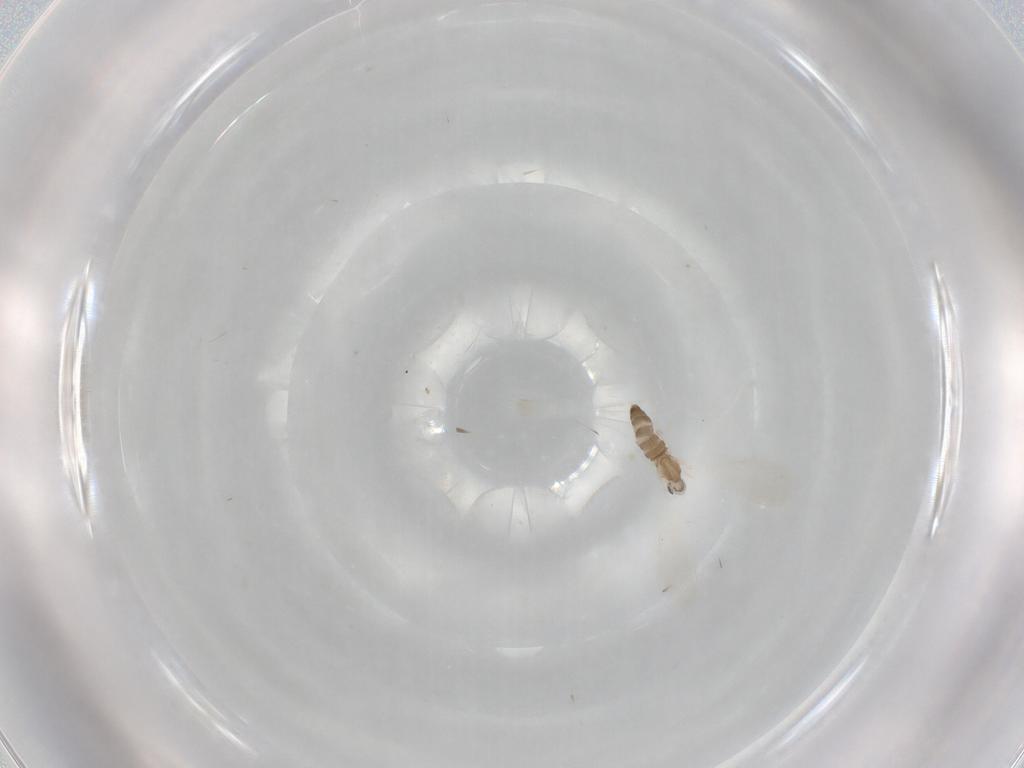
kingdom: Animalia
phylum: Arthropoda
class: Insecta
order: Diptera
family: Cecidomyiidae
